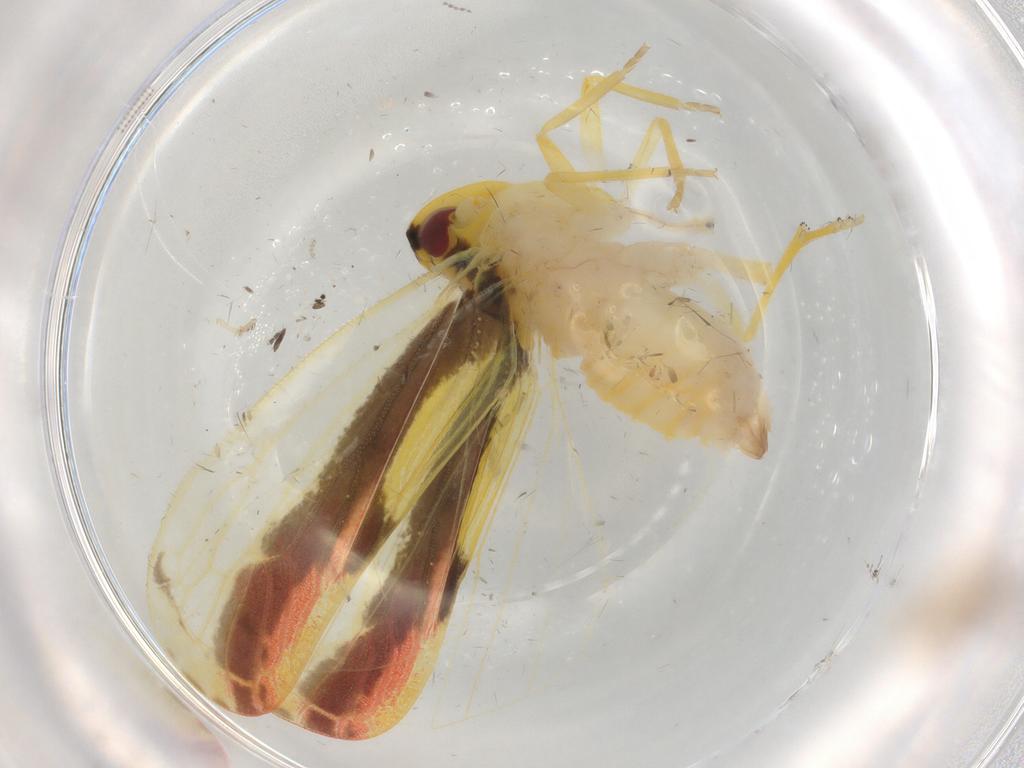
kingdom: Animalia
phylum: Arthropoda
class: Insecta
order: Hemiptera
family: Derbidae
